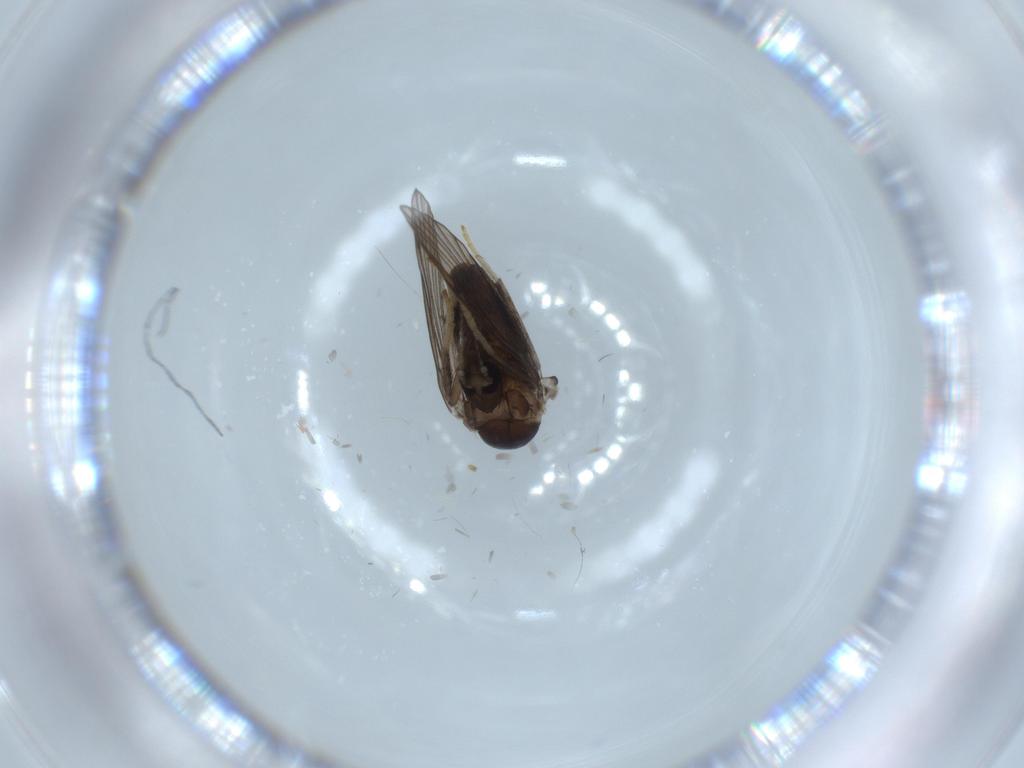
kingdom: Animalia
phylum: Arthropoda
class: Insecta
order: Diptera
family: Psychodidae
